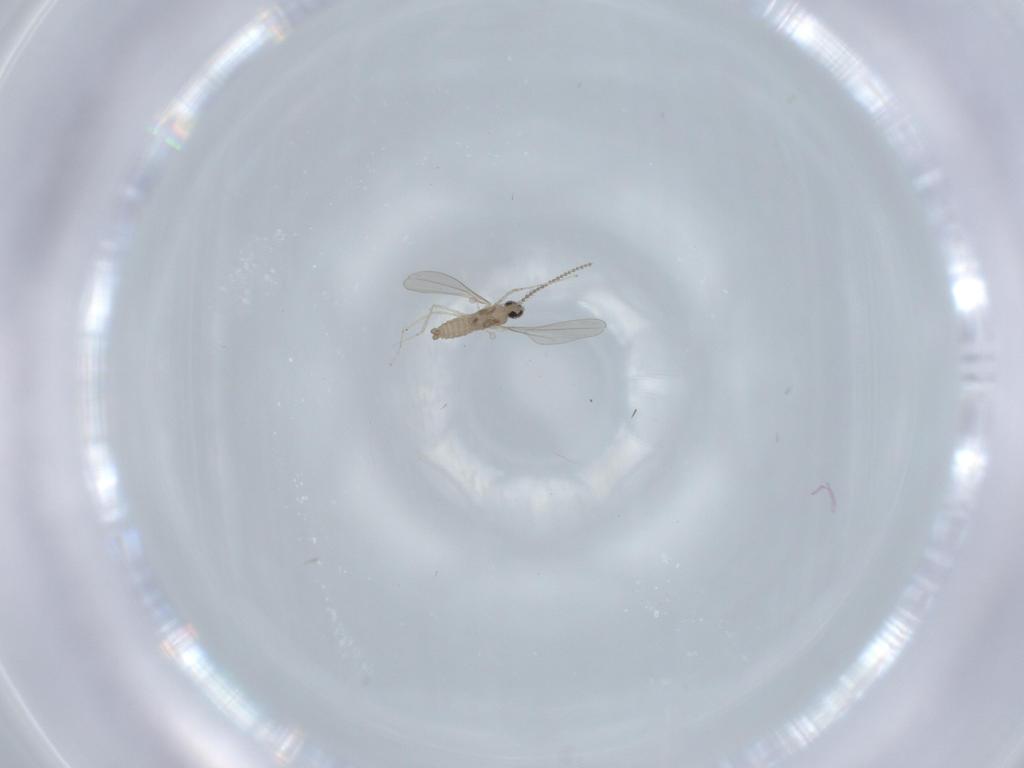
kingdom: Animalia
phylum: Arthropoda
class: Insecta
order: Diptera
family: Cecidomyiidae
